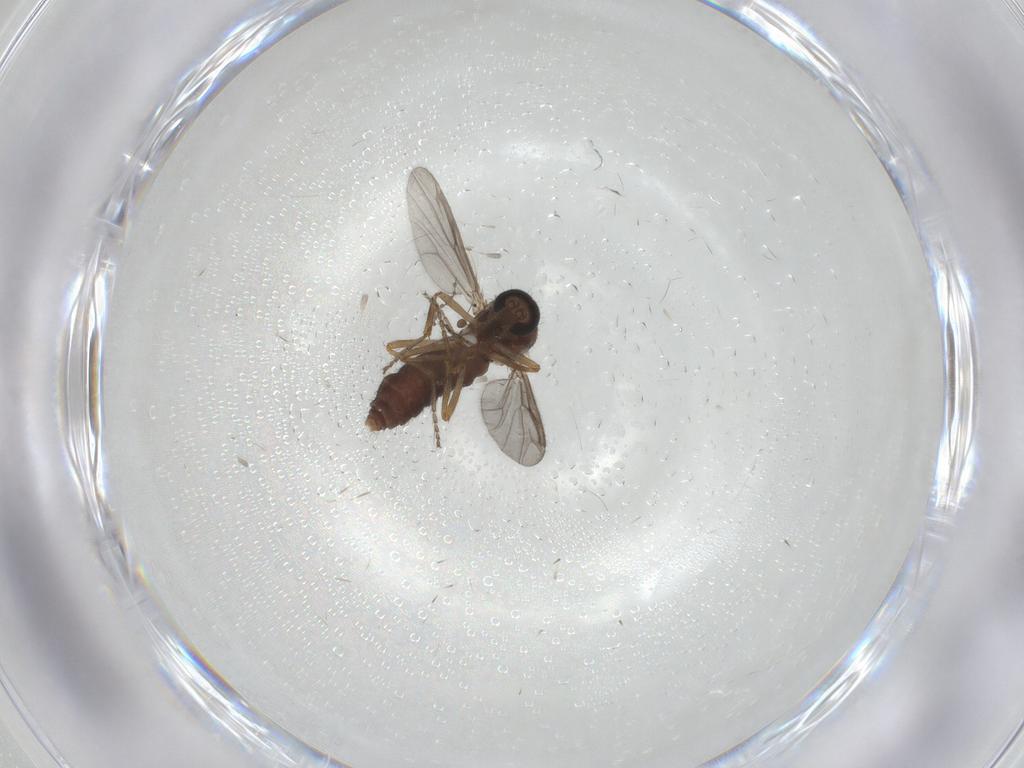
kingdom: Animalia
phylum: Arthropoda
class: Insecta
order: Diptera
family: Ceratopogonidae
